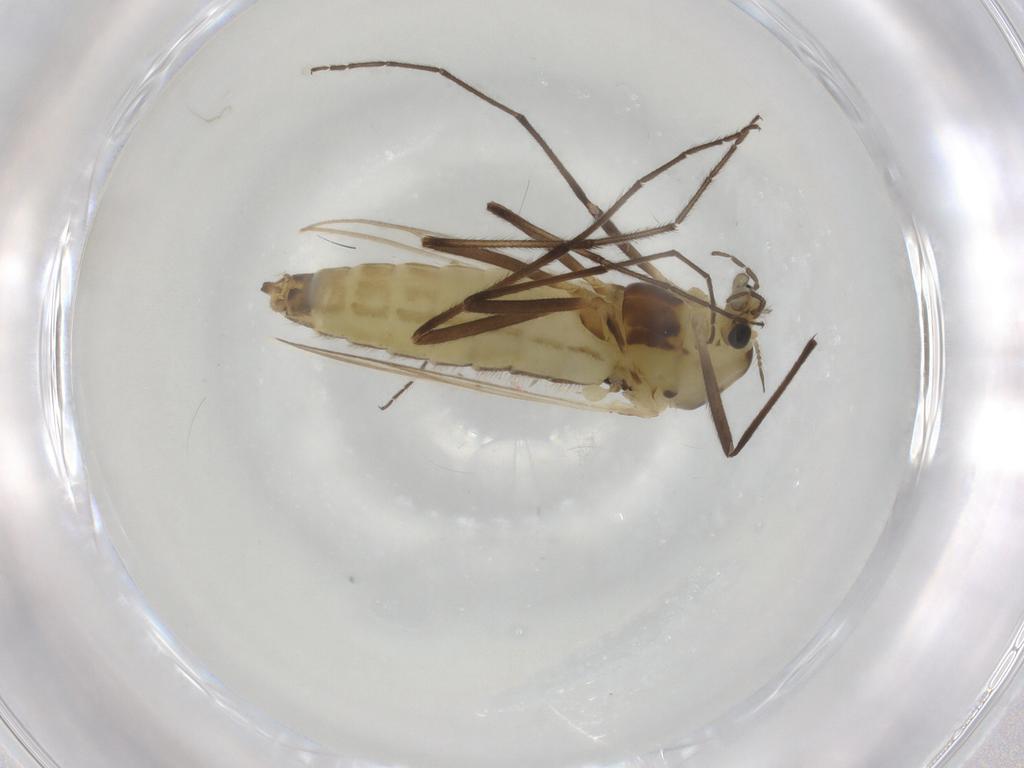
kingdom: Animalia
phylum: Arthropoda
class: Insecta
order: Diptera
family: Chironomidae
